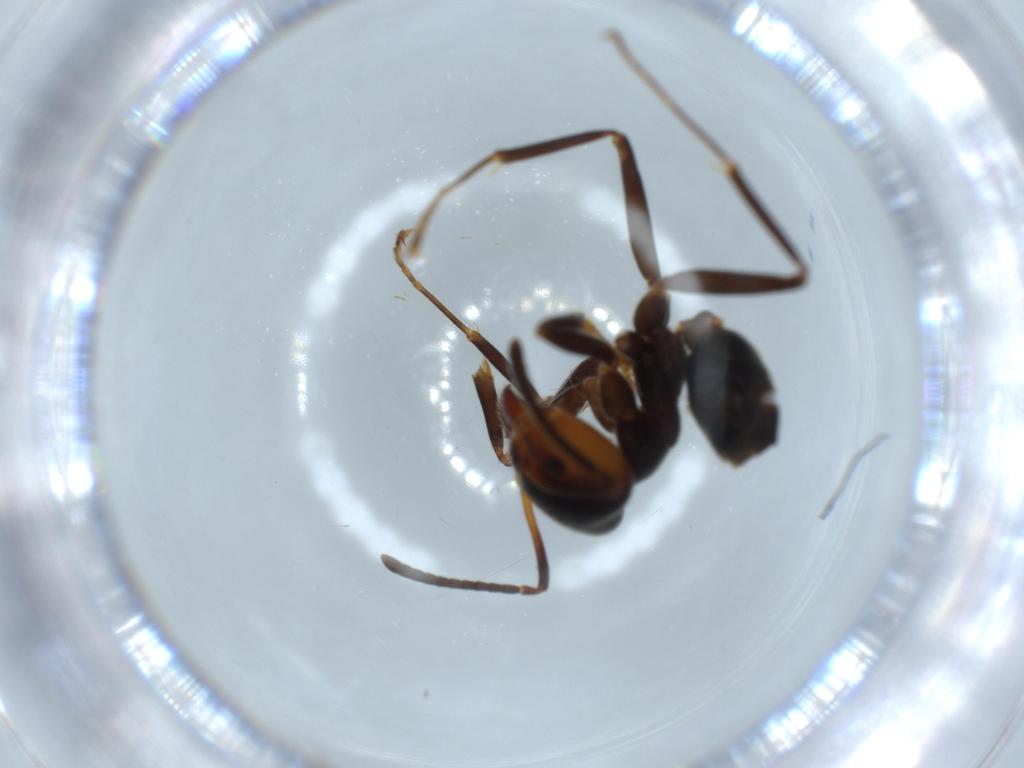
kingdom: Animalia
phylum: Arthropoda
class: Insecta
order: Hymenoptera
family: Formicidae
